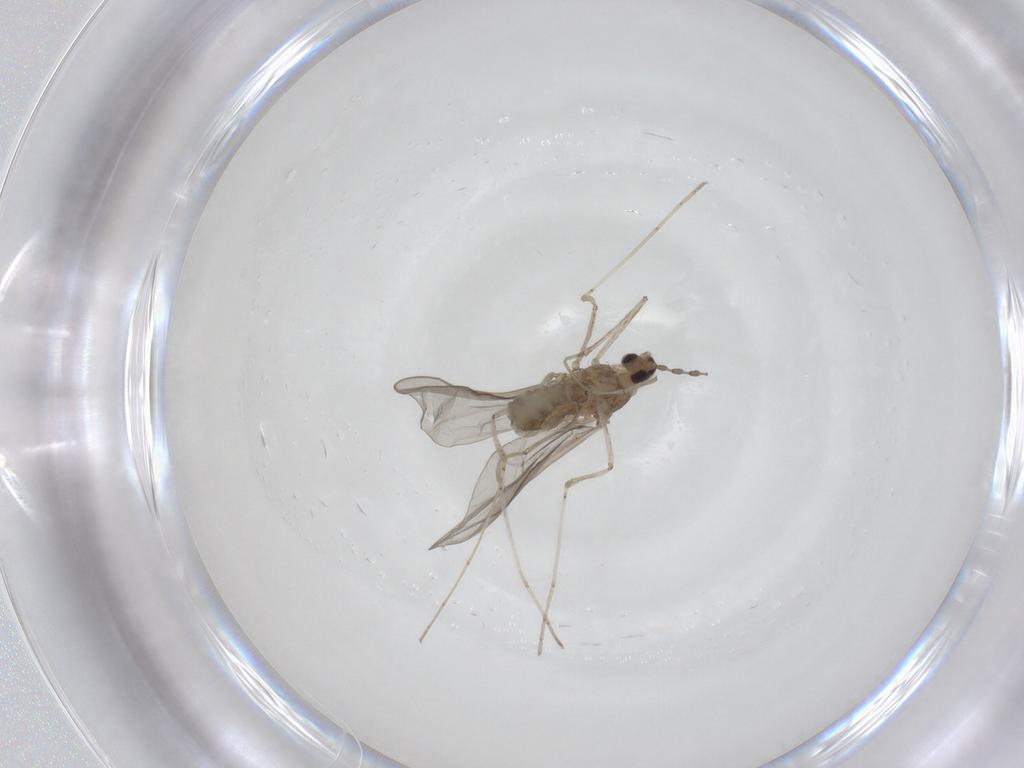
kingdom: Animalia
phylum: Arthropoda
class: Insecta
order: Diptera
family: Cecidomyiidae
